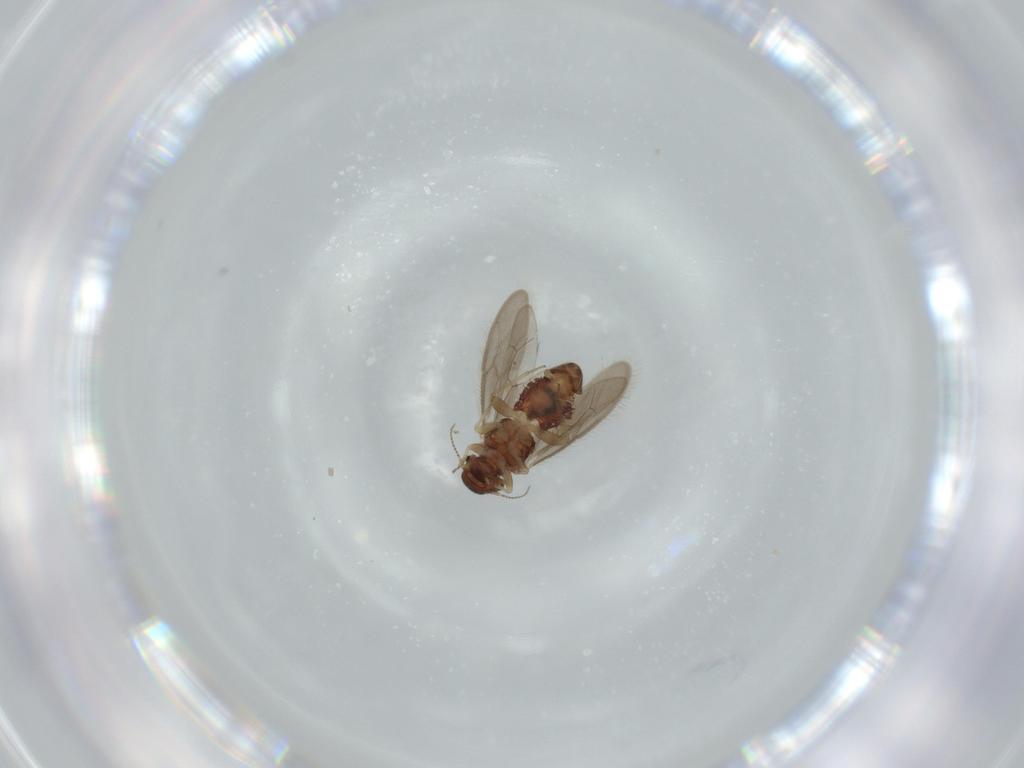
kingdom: Animalia
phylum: Arthropoda
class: Insecta
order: Psocodea
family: Archipsocidae
